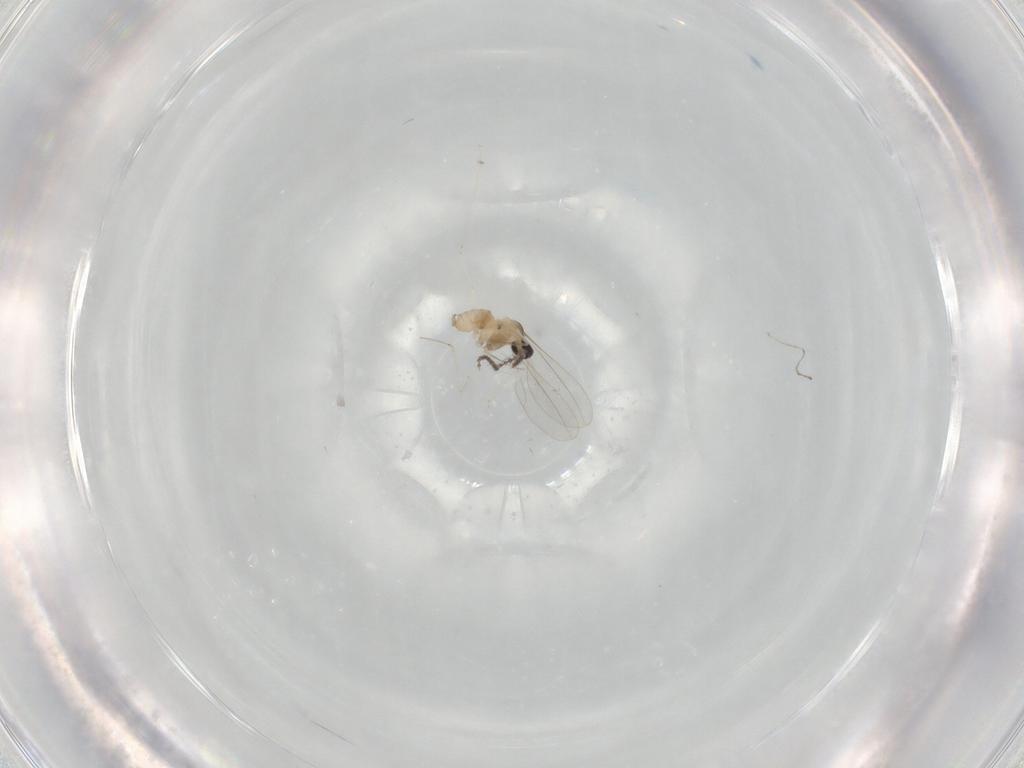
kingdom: Animalia
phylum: Arthropoda
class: Insecta
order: Diptera
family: Cecidomyiidae
